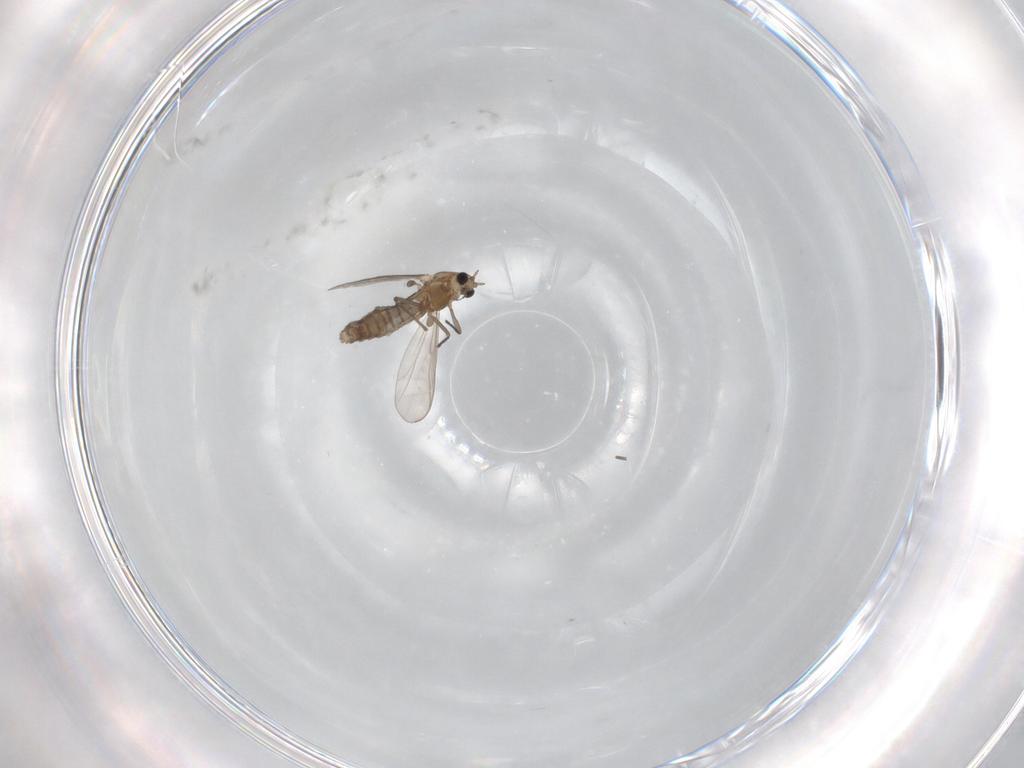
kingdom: Animalia
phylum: Arthropoda
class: Insecta
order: Diptera
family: Chironomidae
